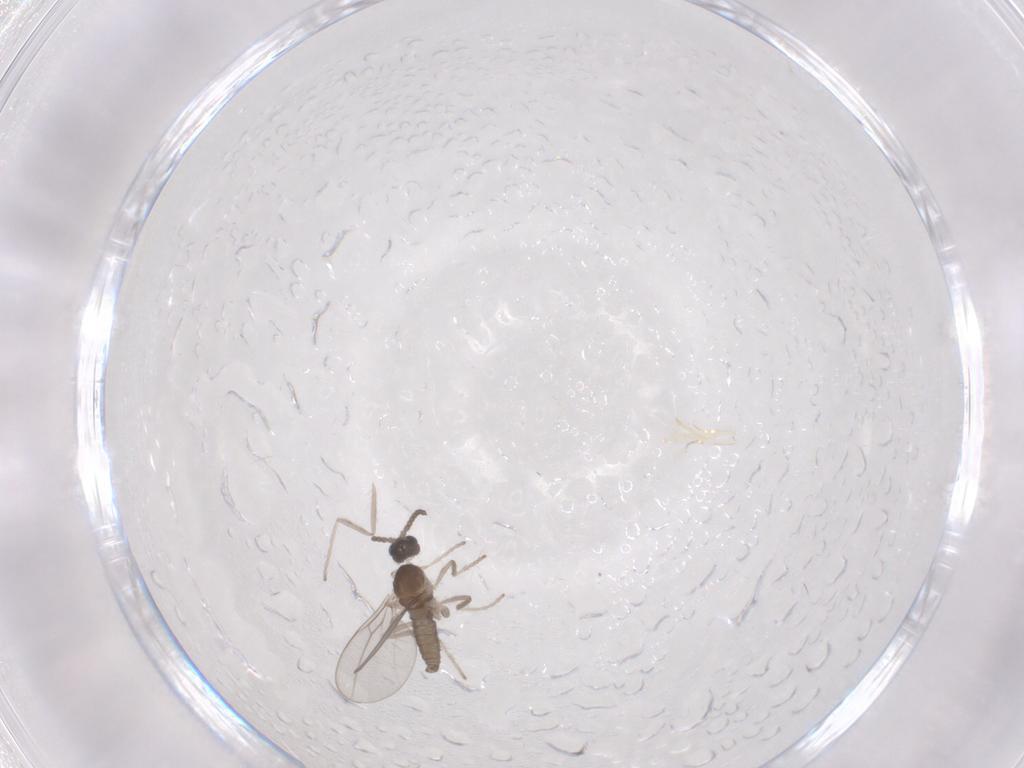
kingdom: Animalia
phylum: Arthropoda
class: Insecta
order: Diptera
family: Cecidomyiidae
